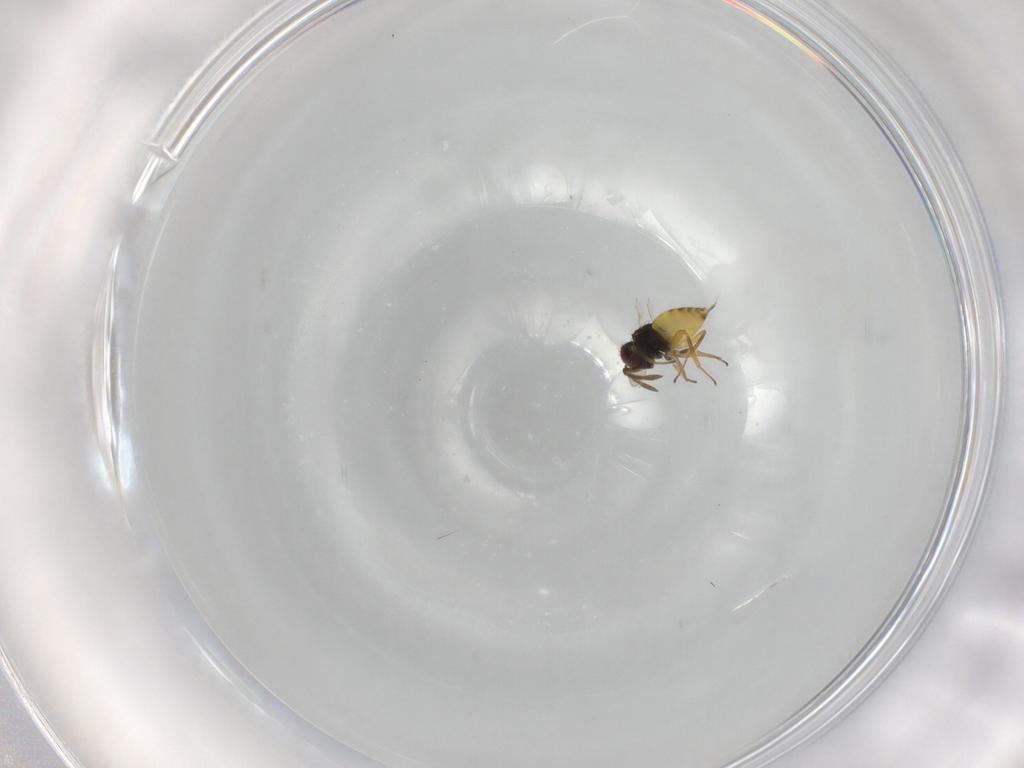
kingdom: Animalia
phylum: Arthropoda
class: Insecta
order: Hymenoptera
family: Aphelinidae
